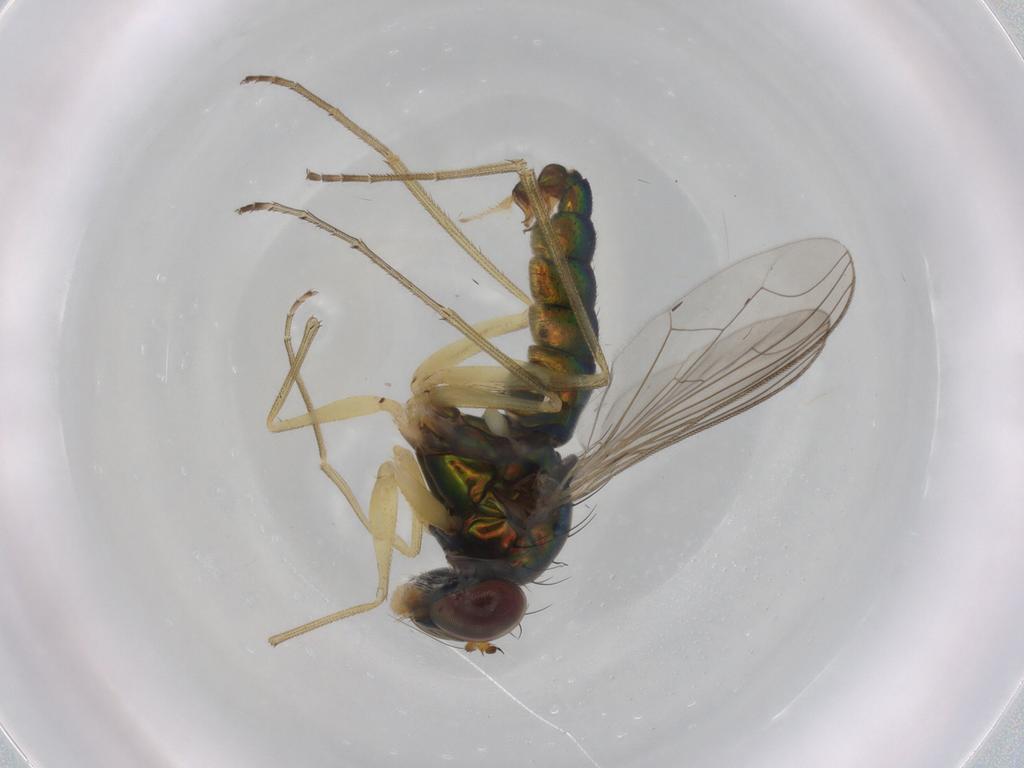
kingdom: Animalia
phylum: Arthropoda
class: Insecta
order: Diptera
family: Dolichopodidae
